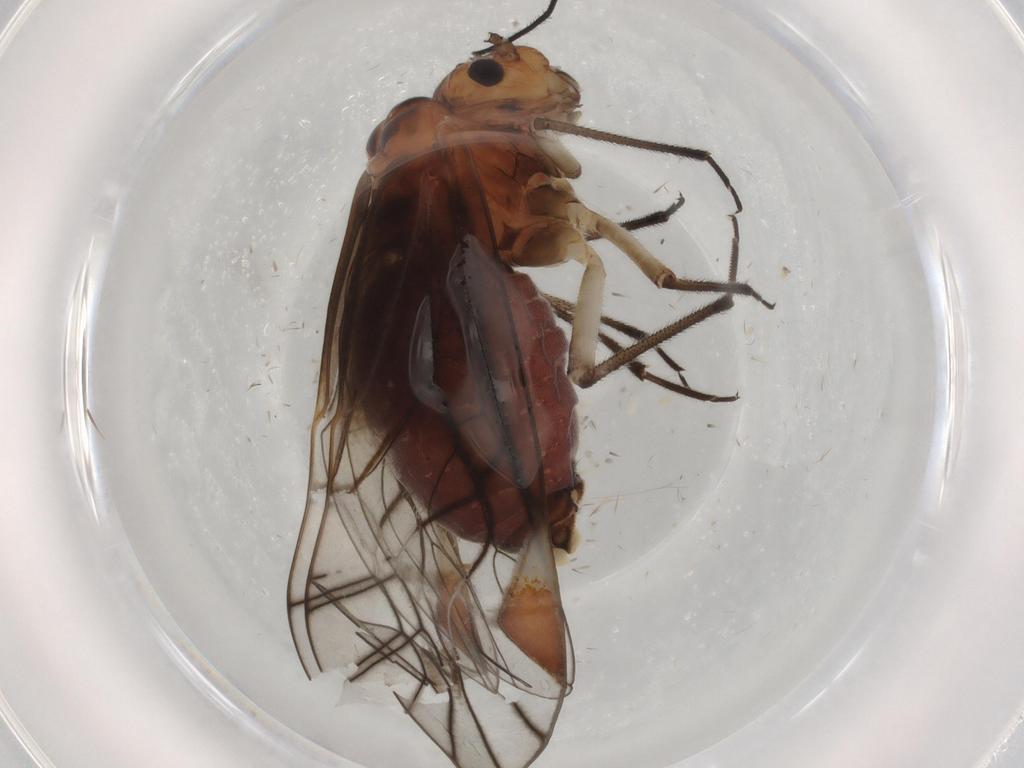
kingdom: Animalia
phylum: Arthropoda
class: Insecta
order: Psocodea
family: Psocidae
